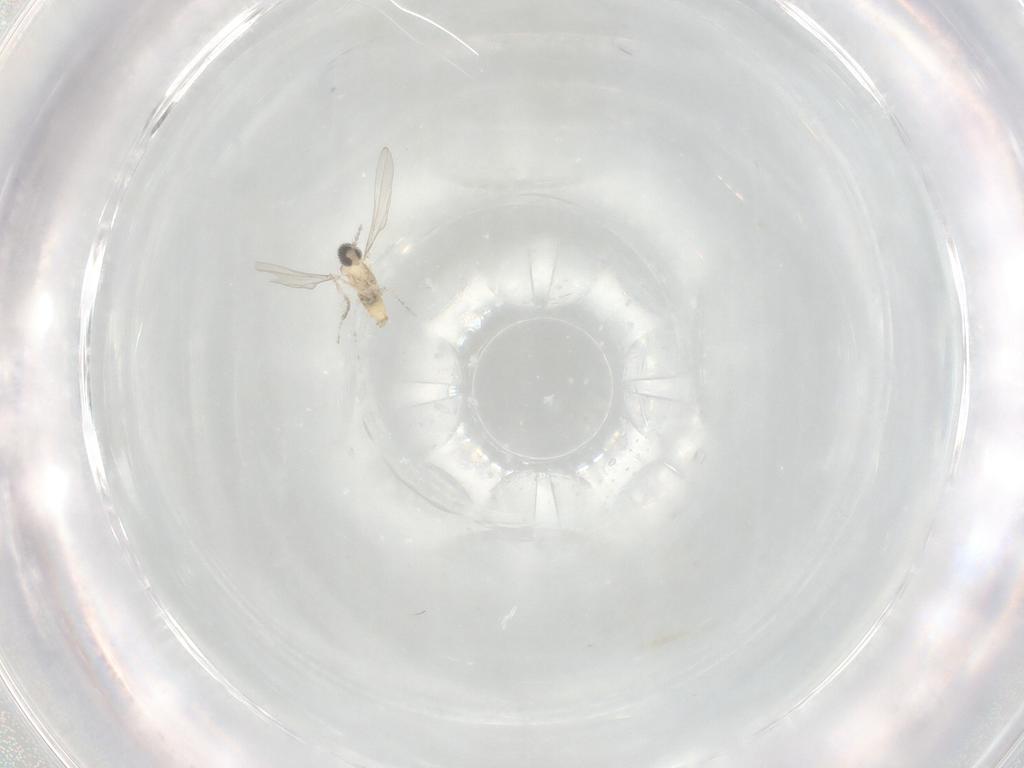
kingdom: Animalia
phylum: Arthropoda
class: Insecta
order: Diptera
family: Cecidomyiidae
